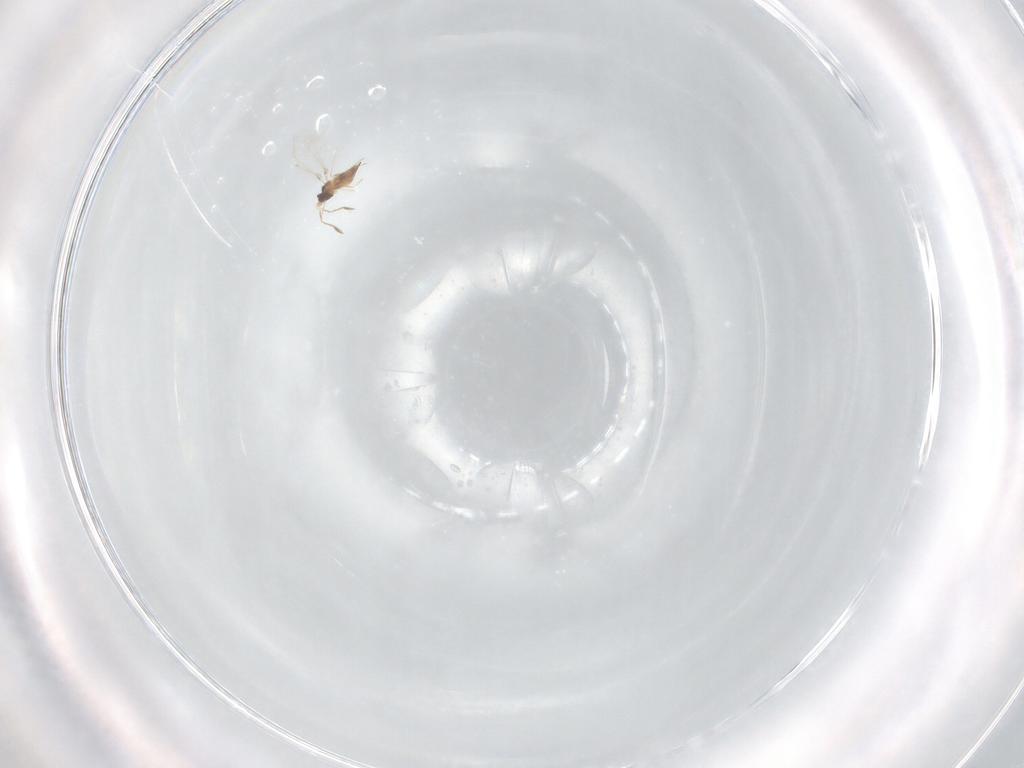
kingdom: Animalia
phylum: Arthropoda
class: Insecta
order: Hymenoptera
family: Mymaridae
